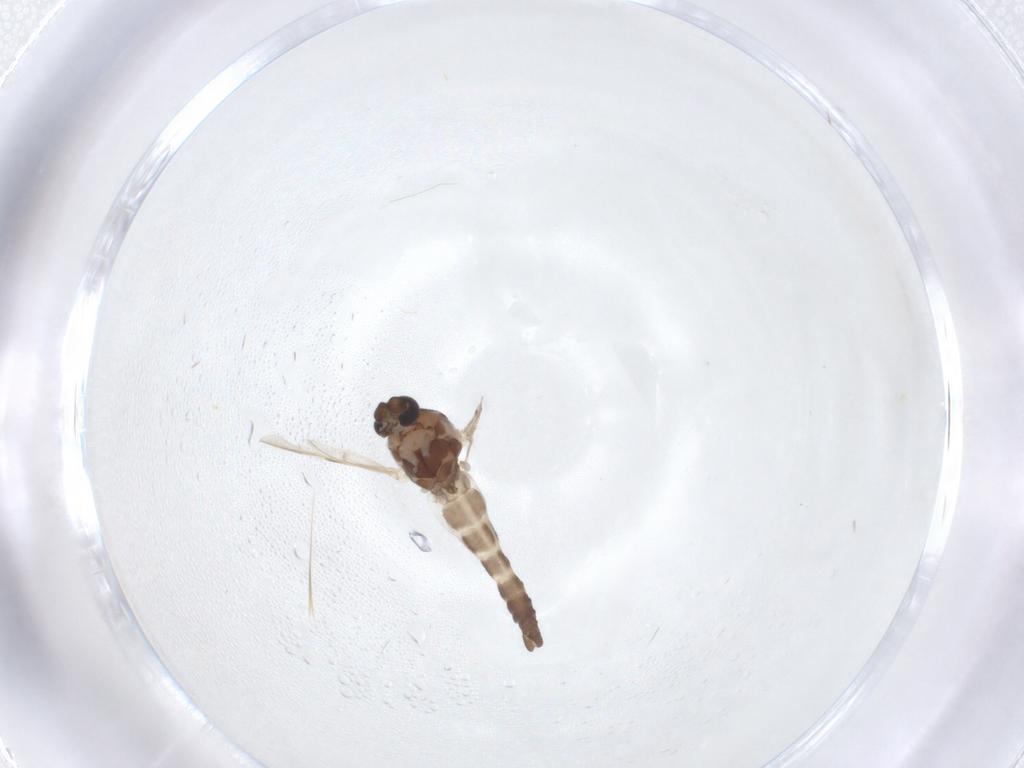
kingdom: Animalia
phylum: Arthropoda
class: Insecta
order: Diptera
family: Ceratopogonidae
